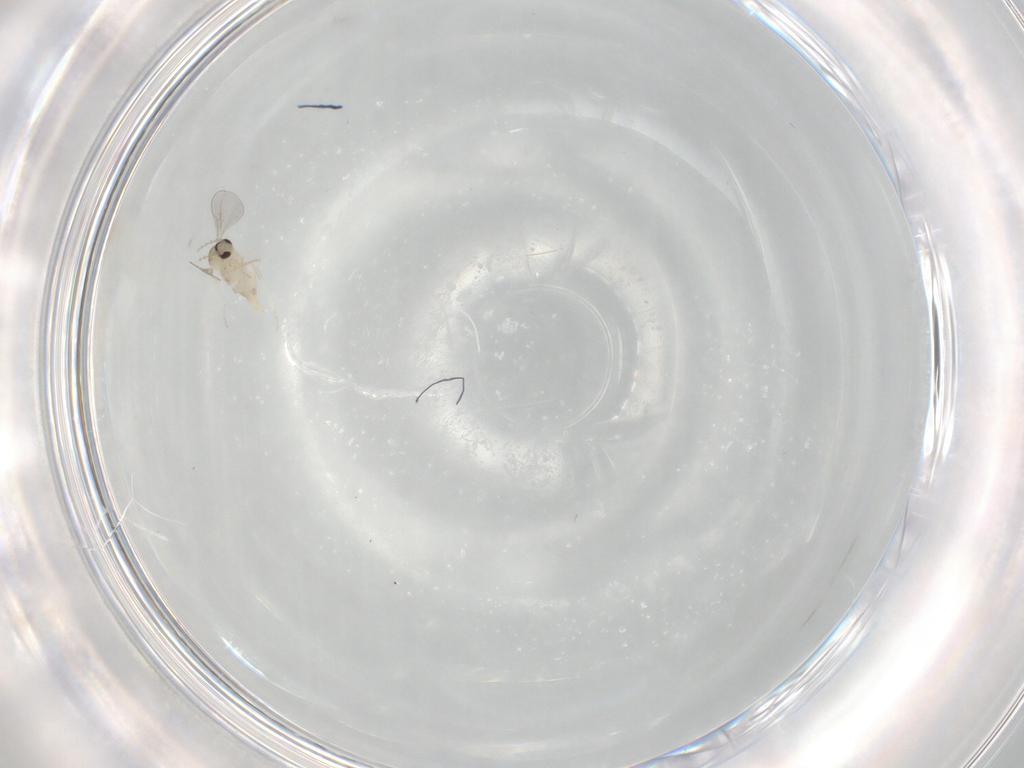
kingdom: Animalia
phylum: Arthropoda
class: Insecta
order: Diptera
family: Cecidomyiidae
